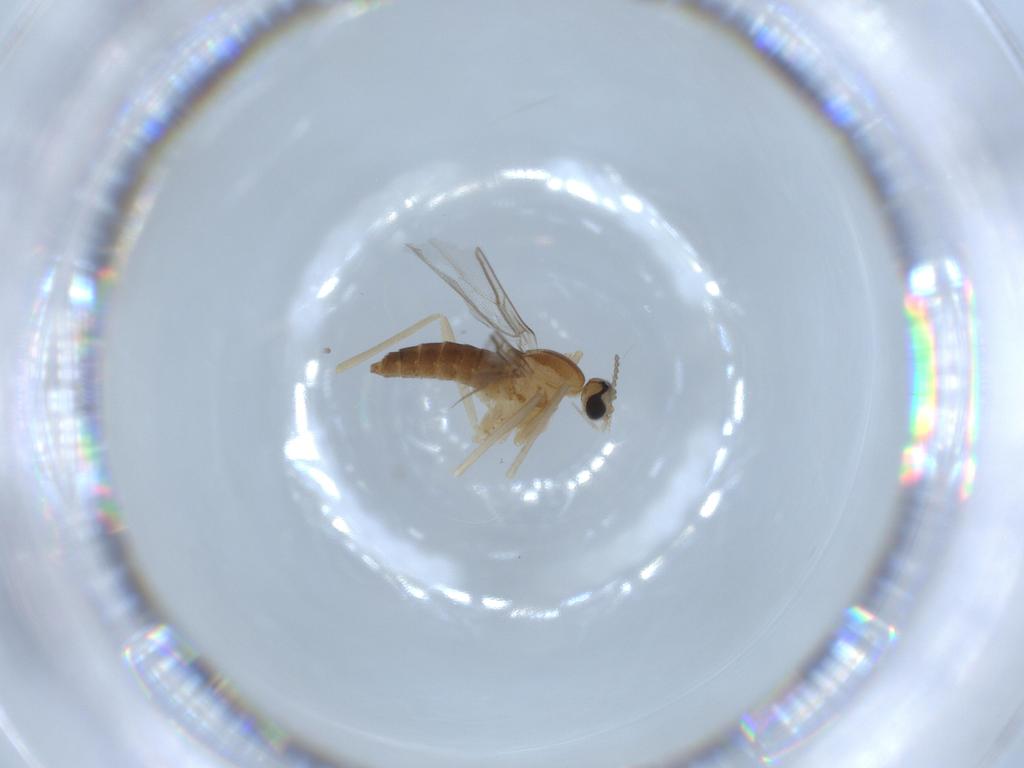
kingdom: Animalia
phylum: Arthropoda
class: Insecta
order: Diptera
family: Cecidomyiidae
